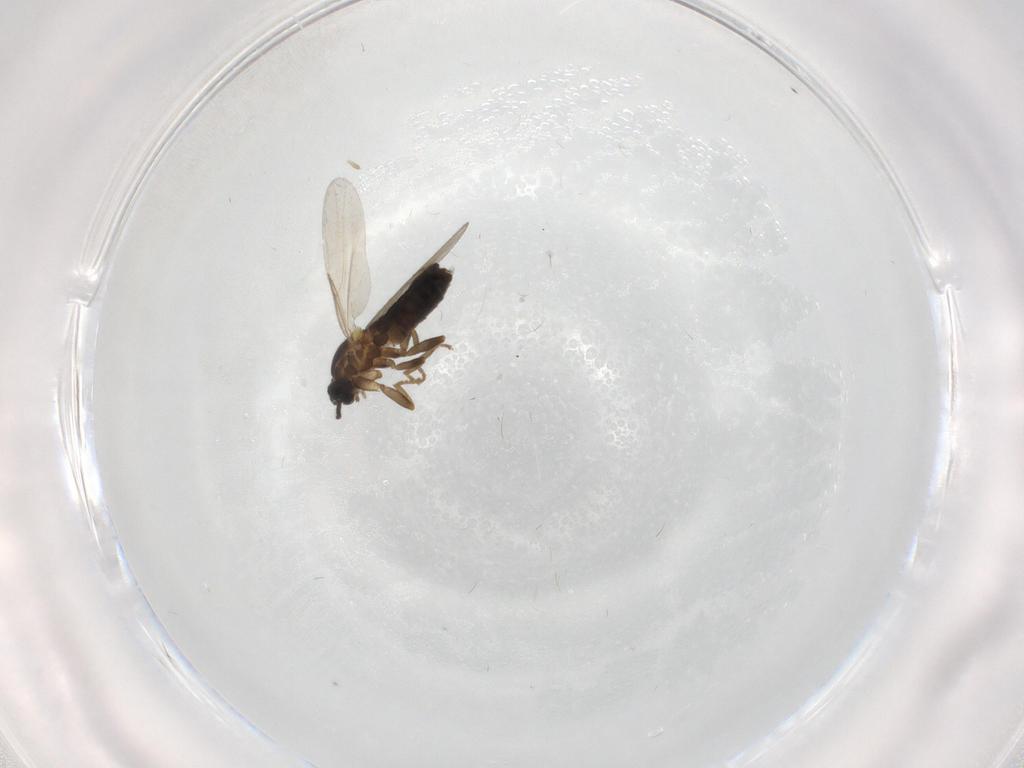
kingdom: Animalia
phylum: Arthropoda
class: Insecta
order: Diptera
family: Scatopsidae
